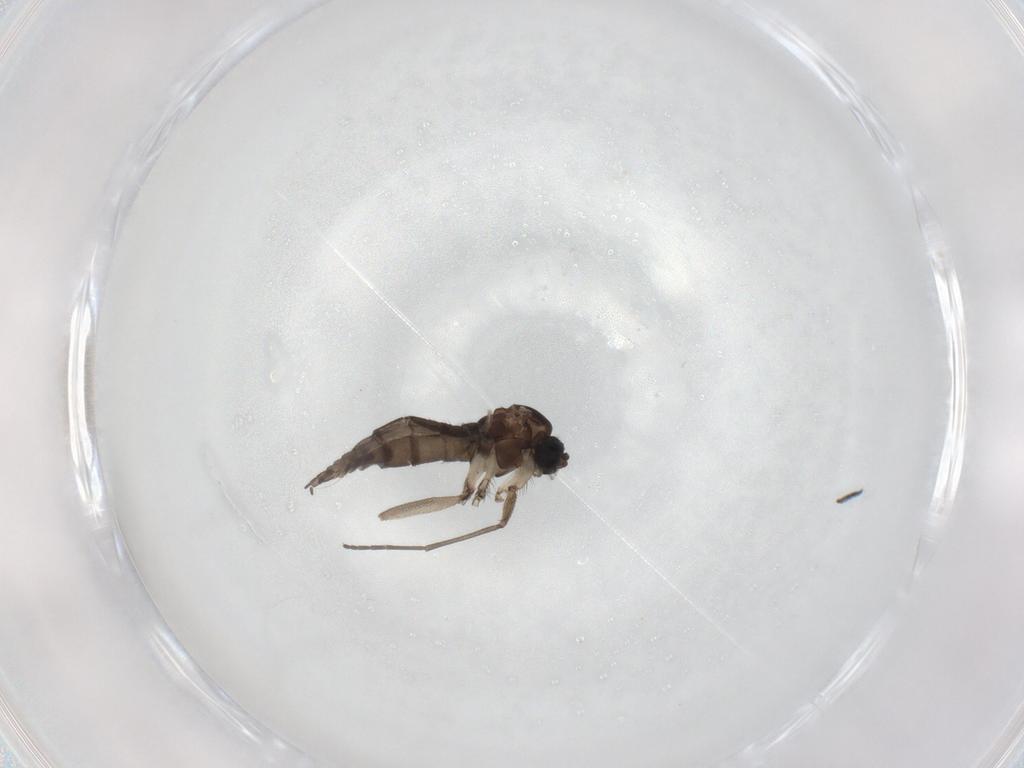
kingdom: Animalia
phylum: Arthropoda
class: Insecta
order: Diptera
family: Sciaridae
